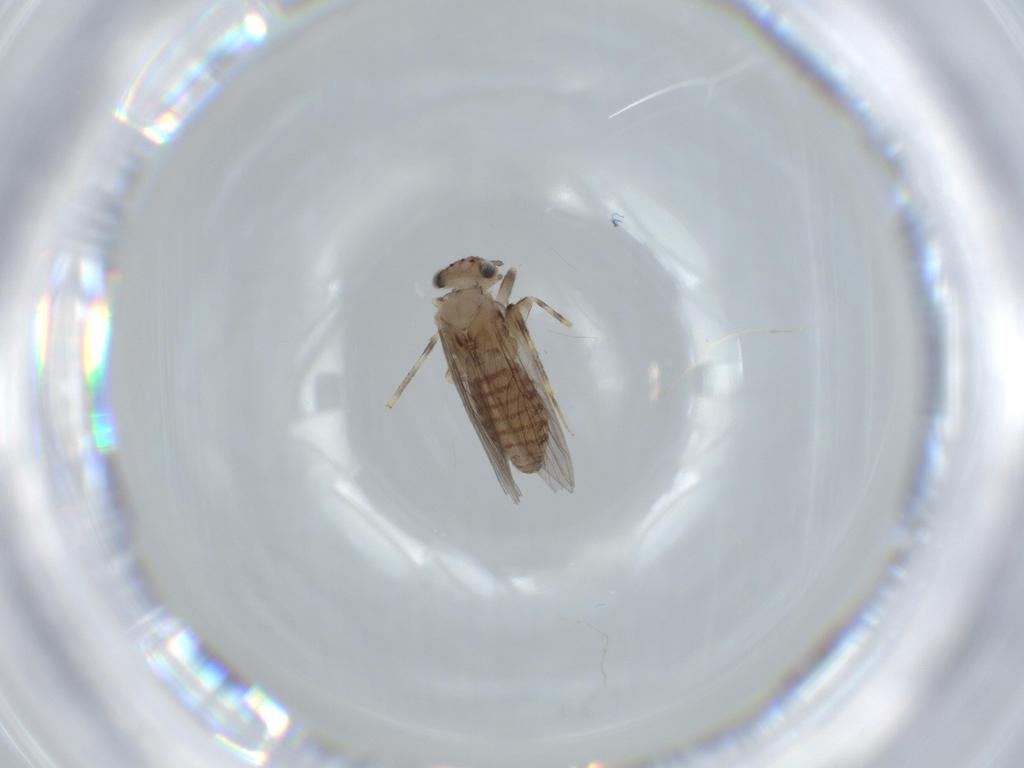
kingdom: Animalia
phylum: Arthropoda
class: Insecta
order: Psocodea
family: Lepidopsocidae
